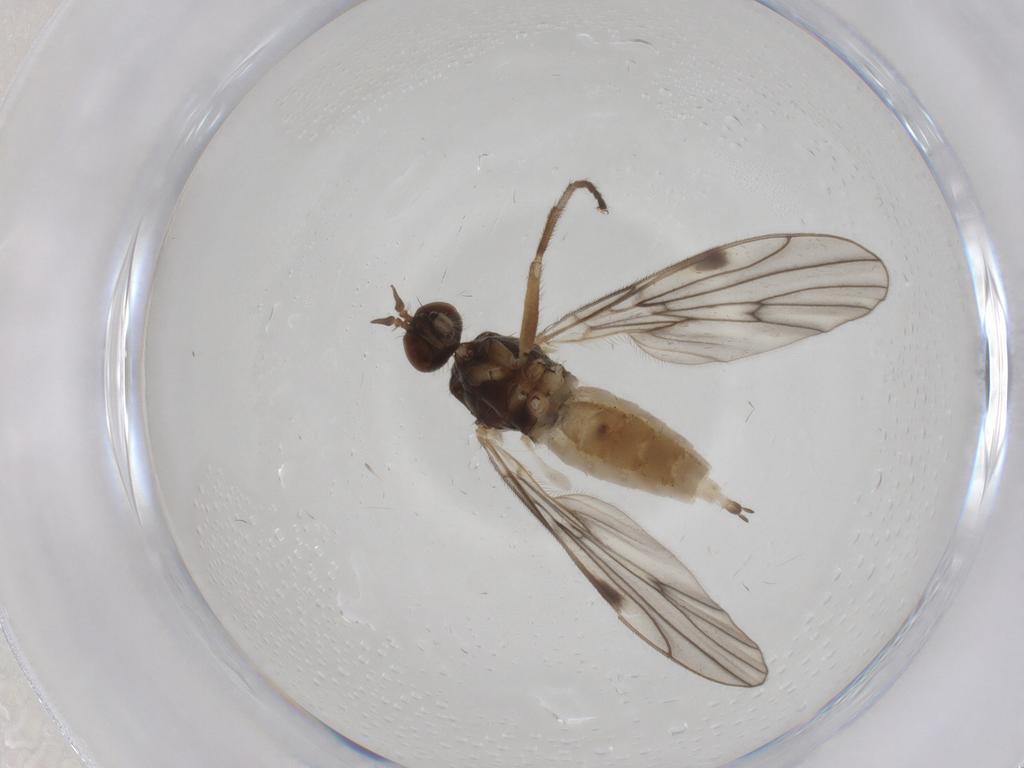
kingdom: Animalia
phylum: Arthropoda
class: Insecta
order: Diptera
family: Empididae
